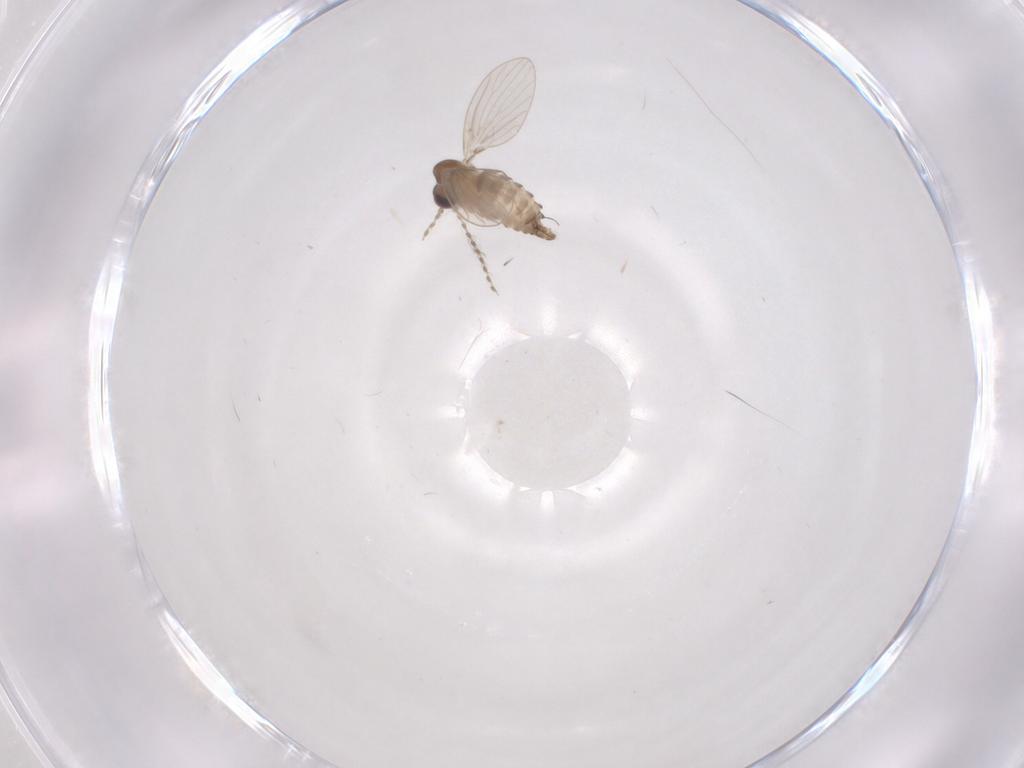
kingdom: Animalia
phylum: Arthropoda
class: Insecta
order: Diptera
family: Psychodidae
